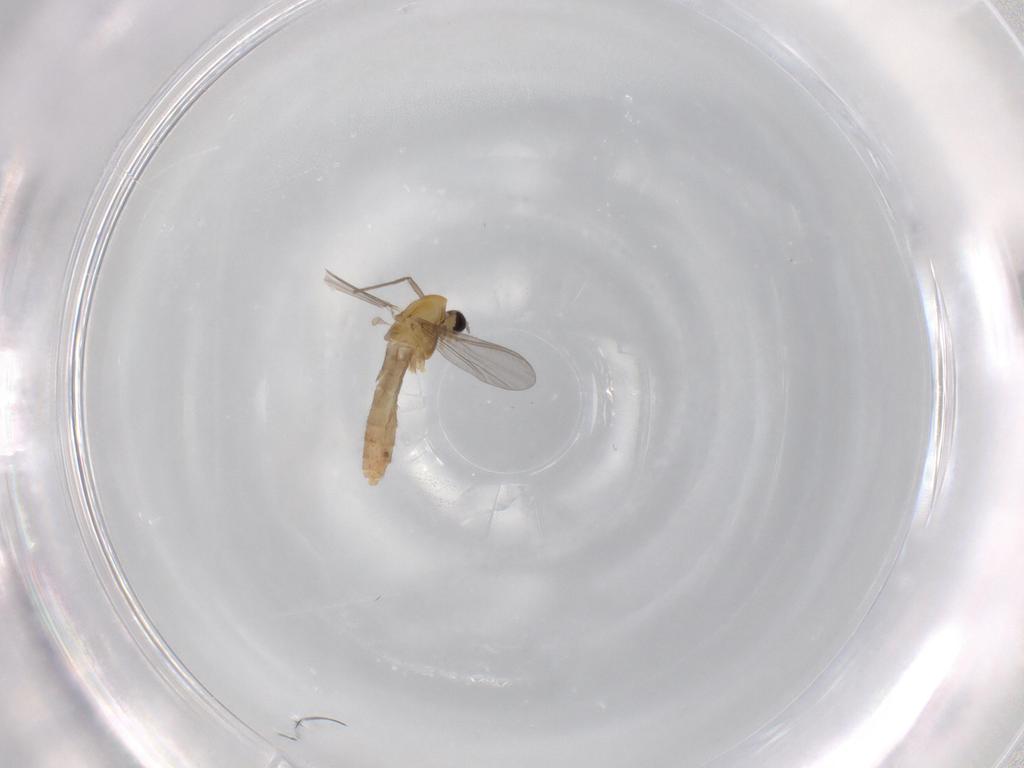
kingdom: Animalia
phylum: Arthropoda
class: Insecta
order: Diptera
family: Chironomidae
